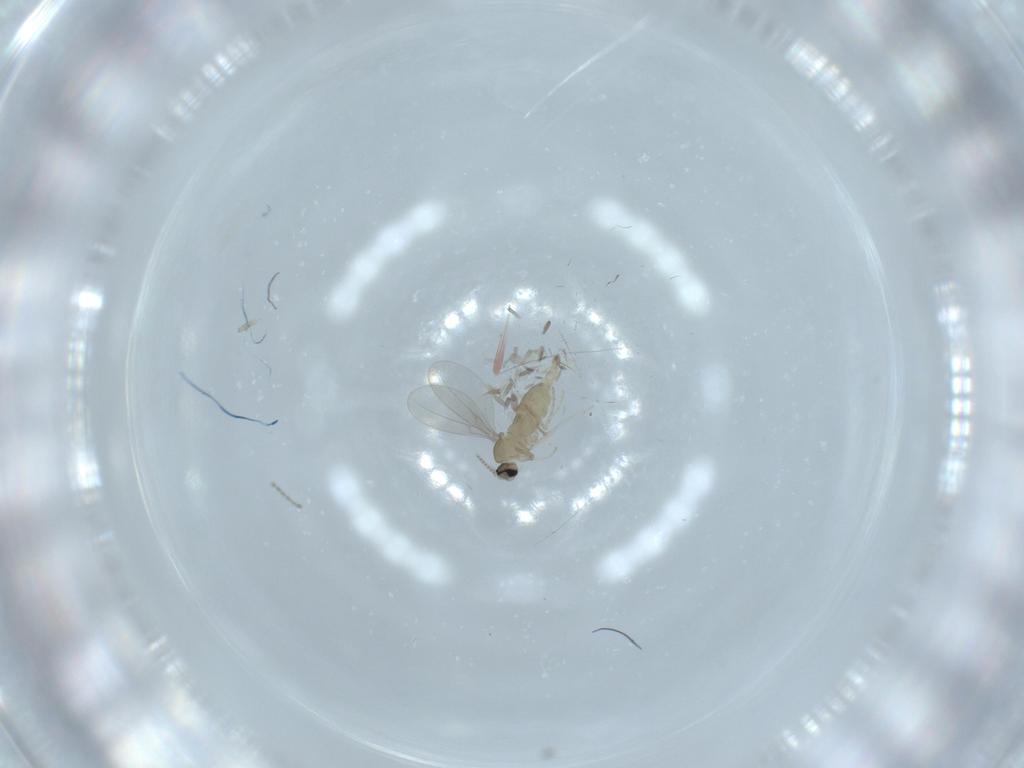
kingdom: Animalia
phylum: Arthropoda
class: Insecta
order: Diptera
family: Cecidomyiidae
